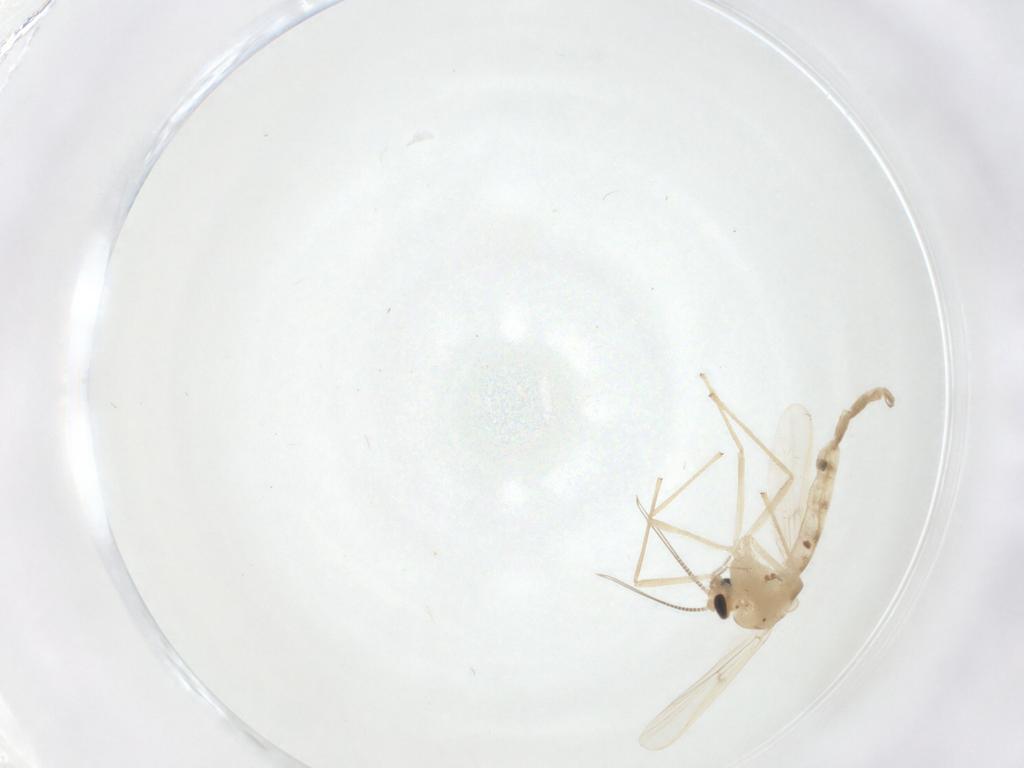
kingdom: Animalia
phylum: Arthropoda
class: Insecta
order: Diptera
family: Chironomidae
